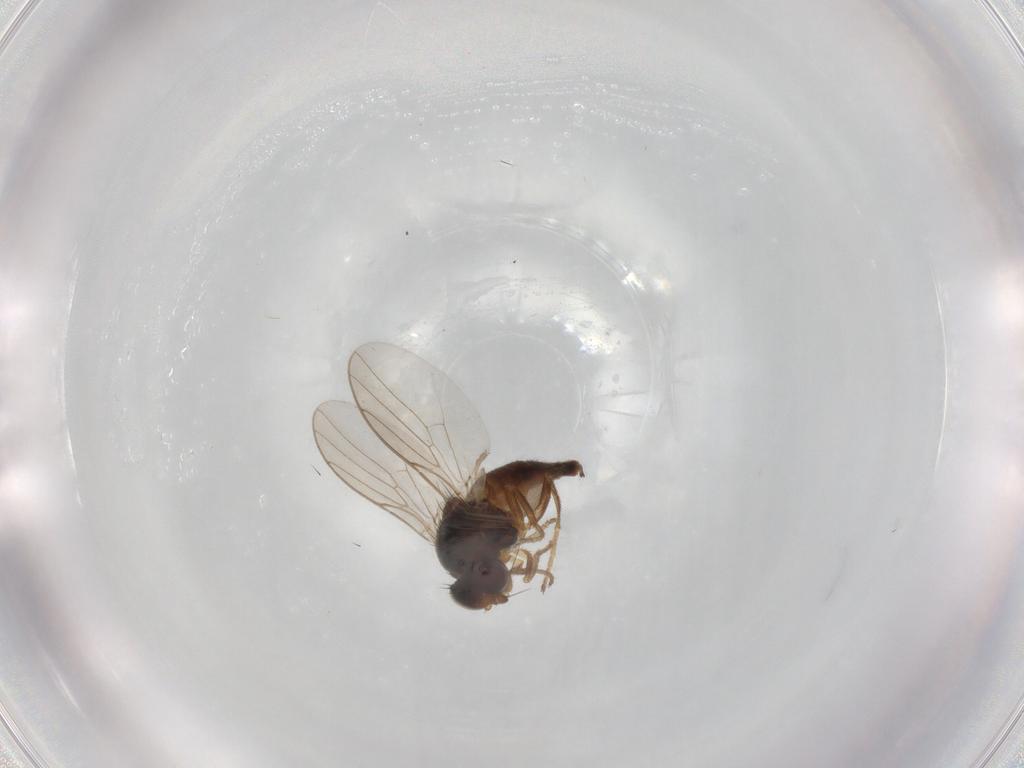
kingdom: Animalia
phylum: Arthropoda
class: Insecta
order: Diptera
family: Chloropidae
